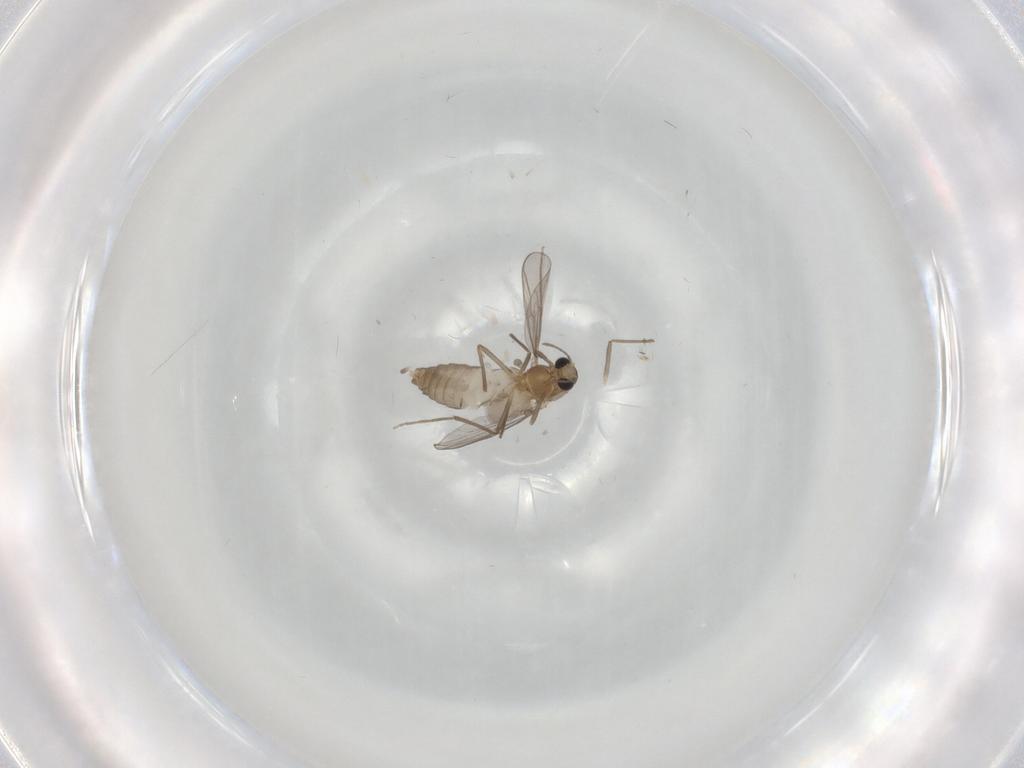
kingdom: Animalia
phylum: Arthropoda
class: Insecta
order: Diptera
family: Chironomidae
